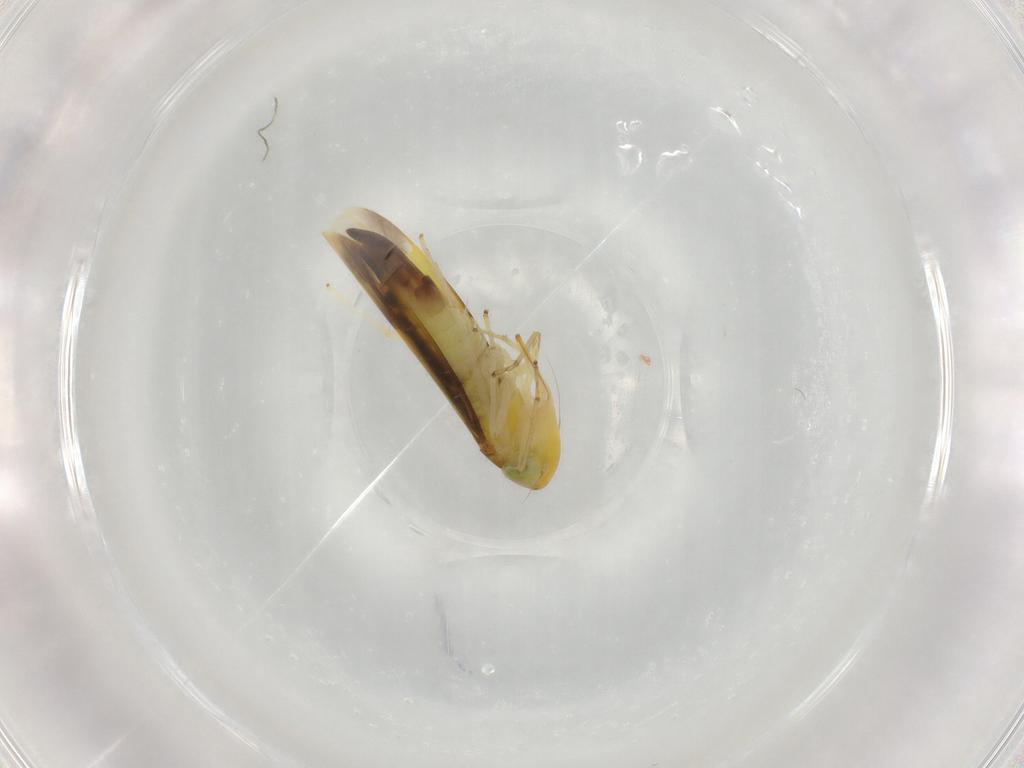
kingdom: Animalia
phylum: Arthropoda
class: Insecta
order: Hemiptera
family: Cicadellidae
